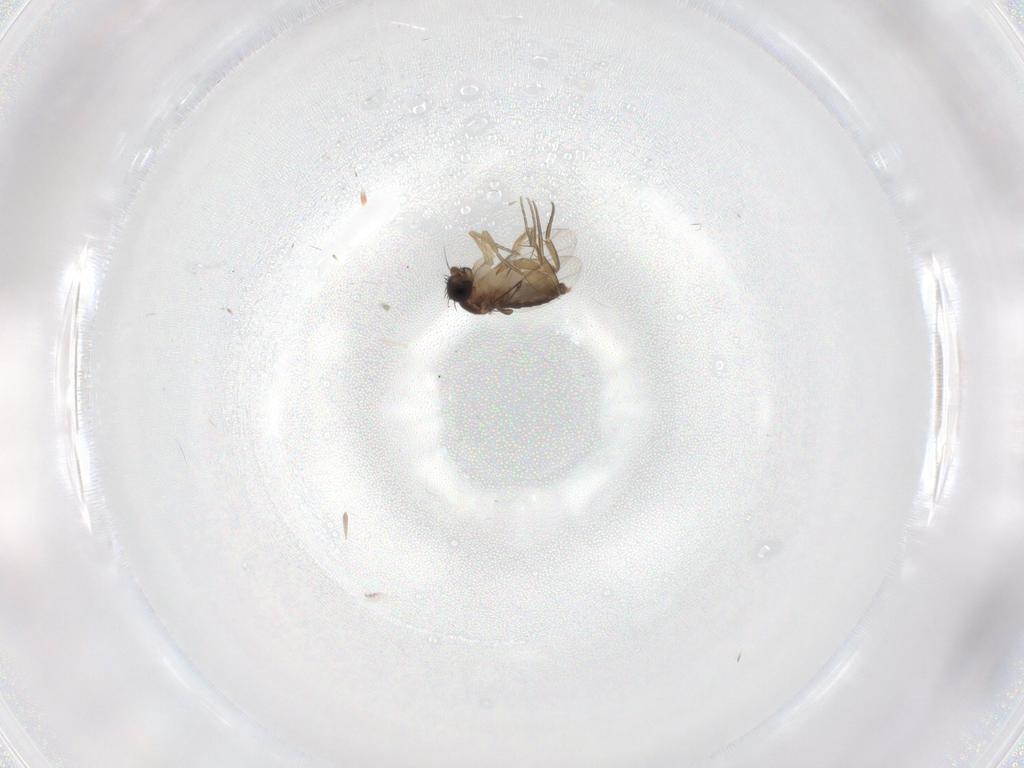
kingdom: Animalia
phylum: Arthropoda
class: Insecta
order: Diptera
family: Phoridae
